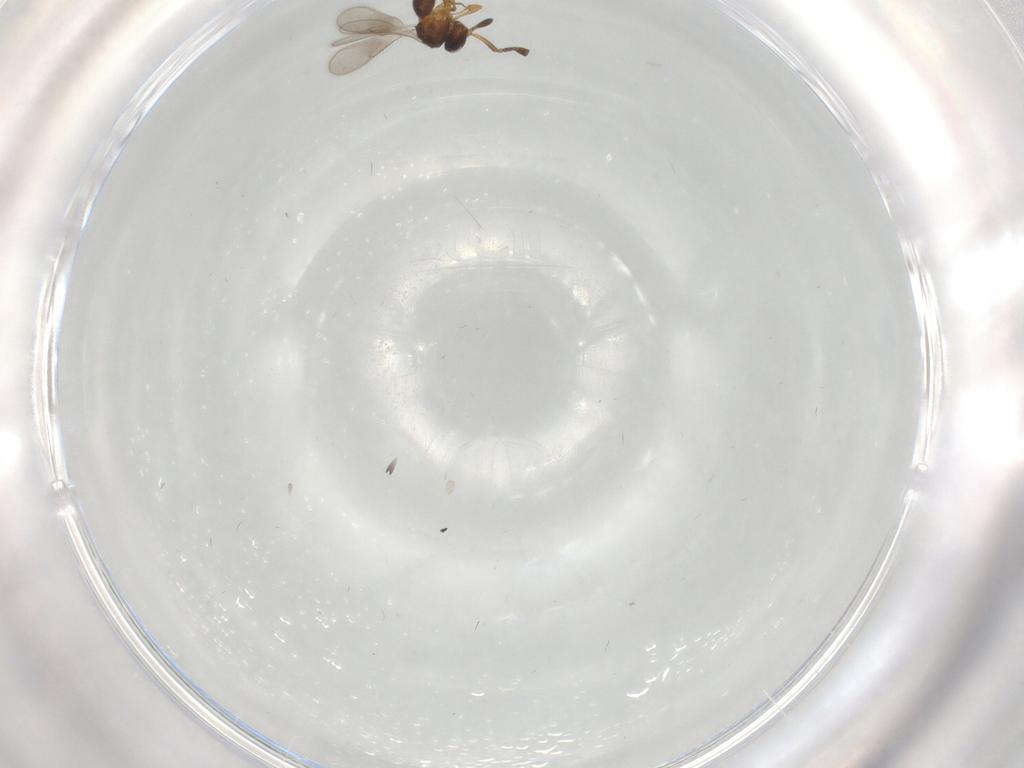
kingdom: Animalia
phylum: Arthropoda
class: Insecta
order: Hymenoptera
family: Scelionidae
